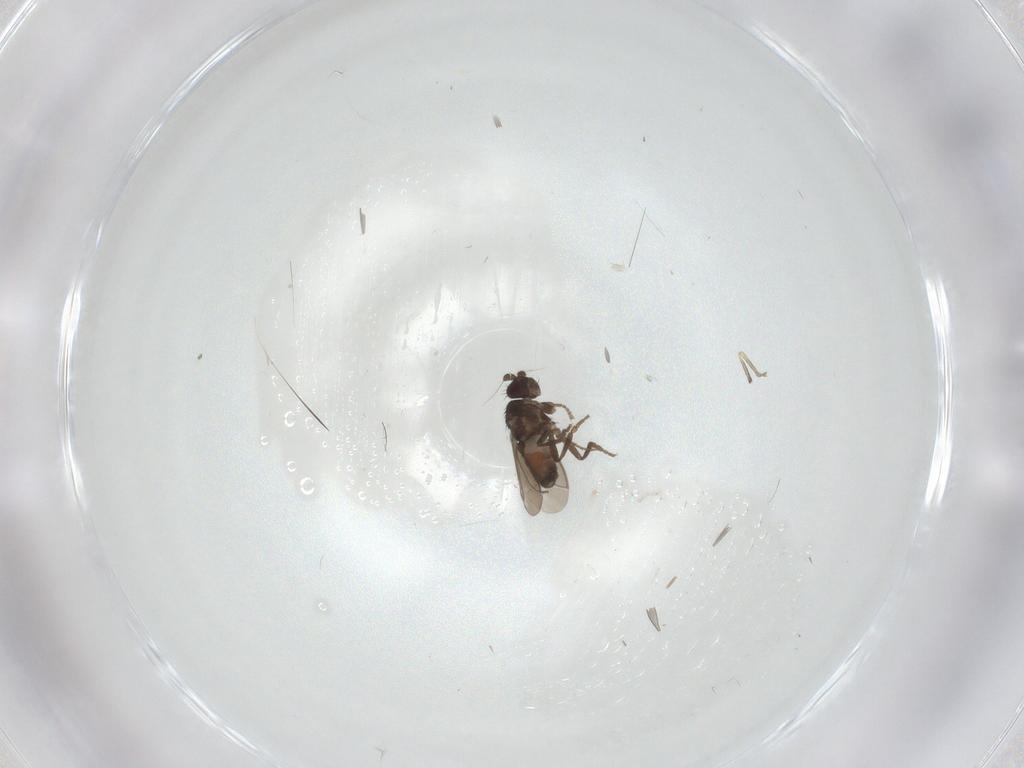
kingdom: Animalia
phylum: Arthropoda
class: Insecta
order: Diptera
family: Sphaeroceridae
